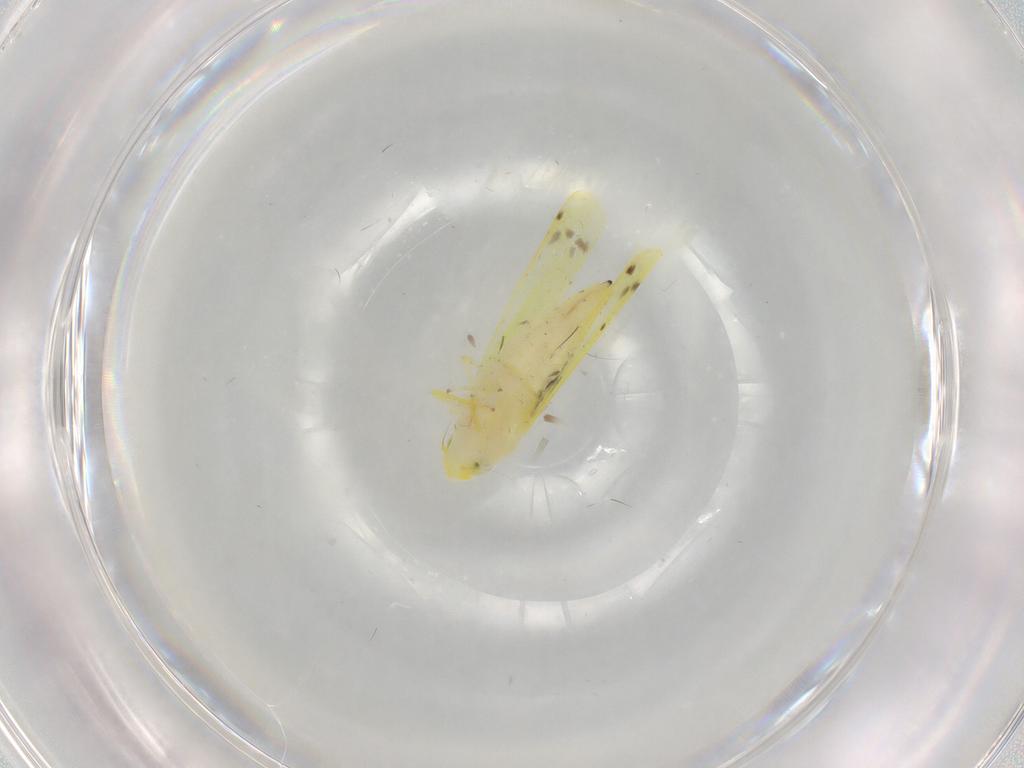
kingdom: Animalia
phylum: Arthropoda
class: Insecta
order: Hemiptera
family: Cicadellidae
